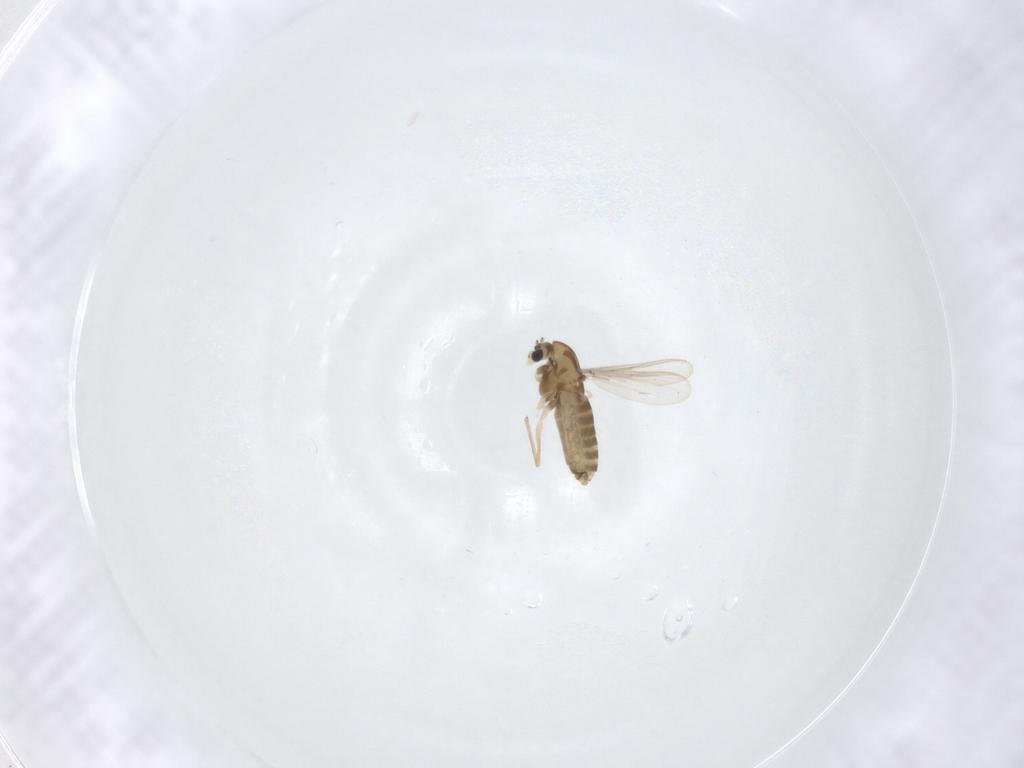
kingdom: Animalia
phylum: Arthropoda
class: Insecta
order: Diptera
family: Chironomidae
